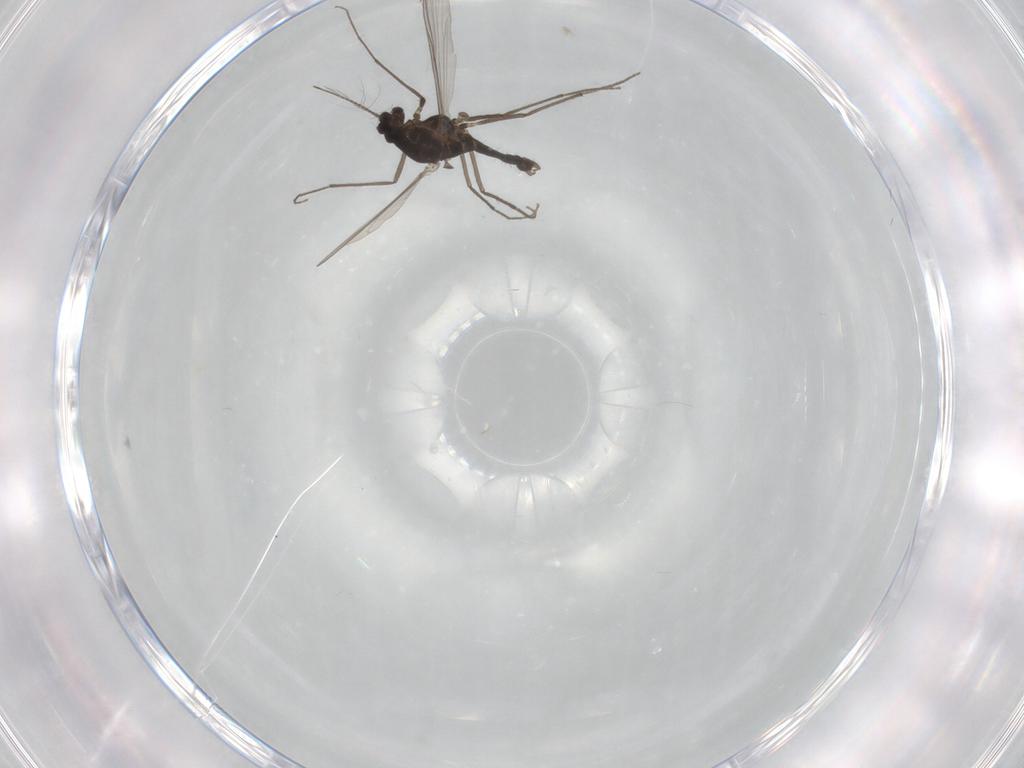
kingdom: Animalia
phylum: Arthropoda
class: Insecta
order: Diptera
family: Chironomidae
